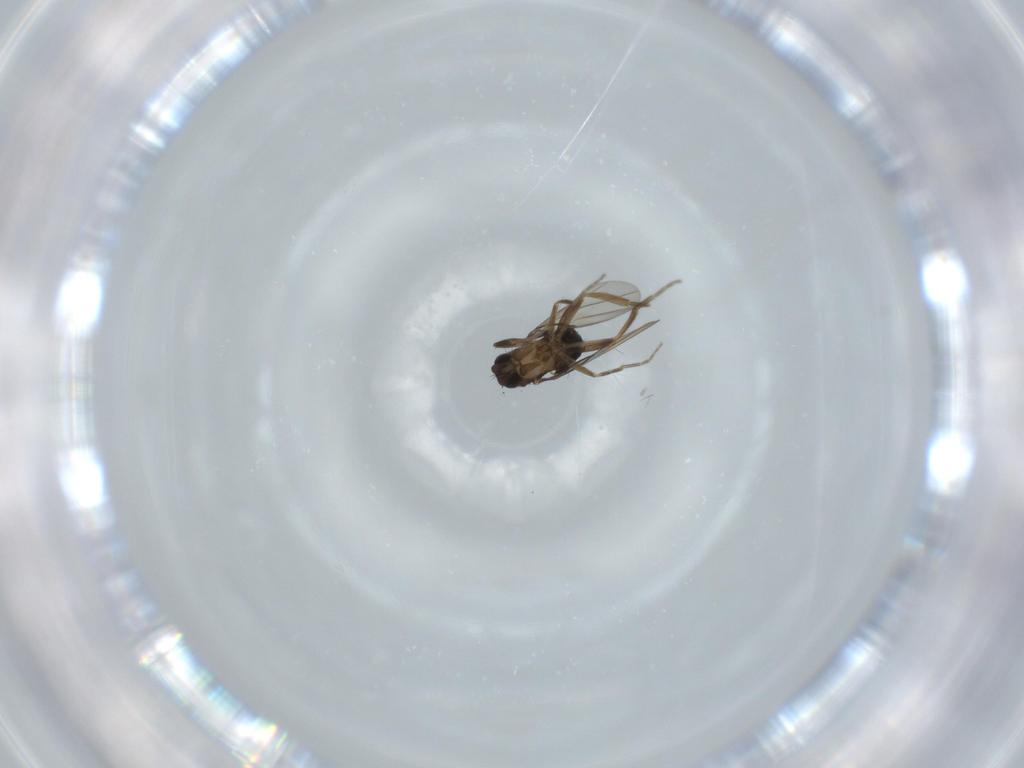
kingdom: Animalia
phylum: Arthropoda
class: Insecta
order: Diptera
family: Phoridae
